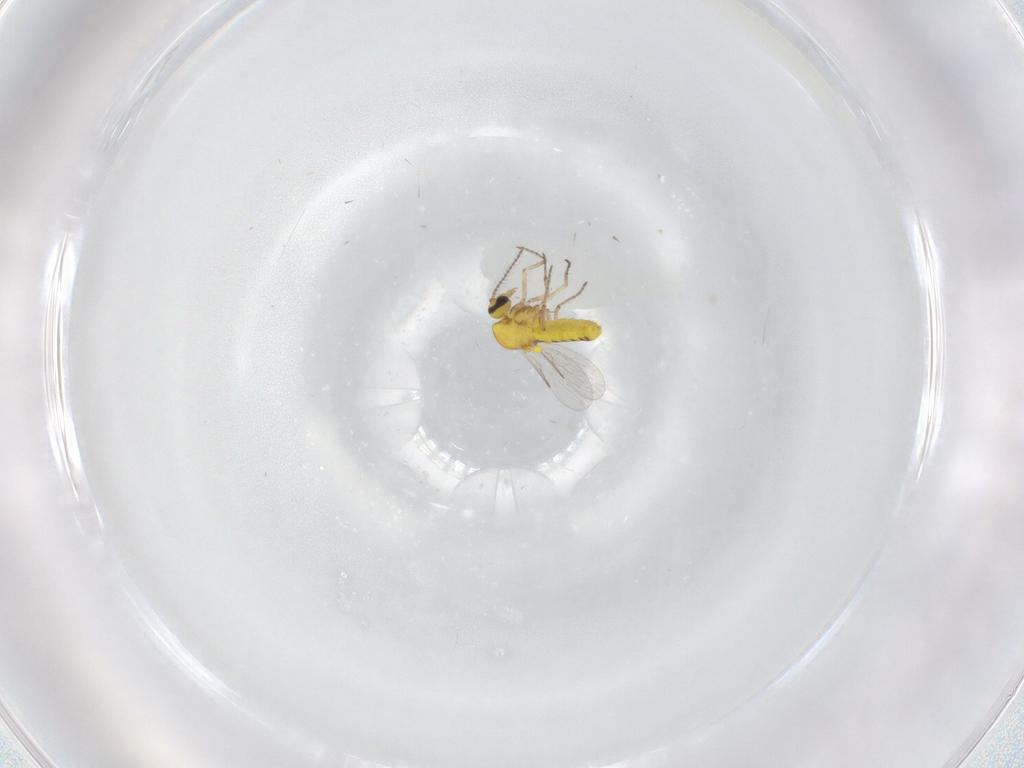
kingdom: Animalia
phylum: Arthropoda
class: Insecta
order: Diptera
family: Ceratopogonidae
